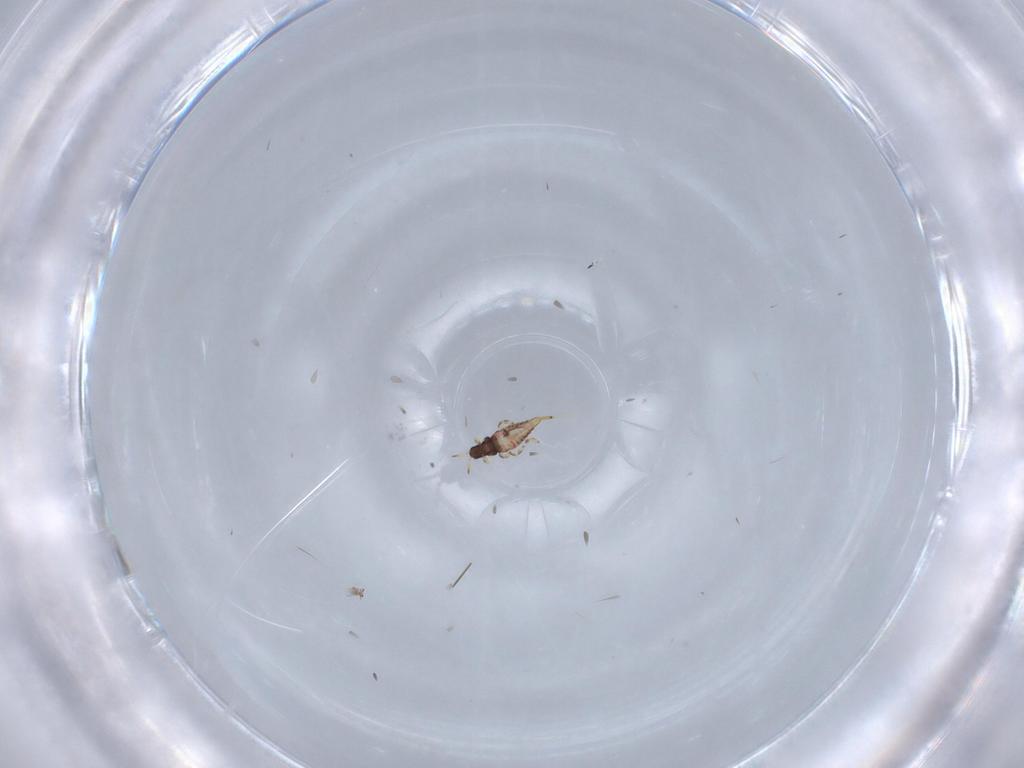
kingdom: Animalia
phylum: Arthropoda
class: Insecta
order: Thysanoptera
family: Phlaeothripidae
